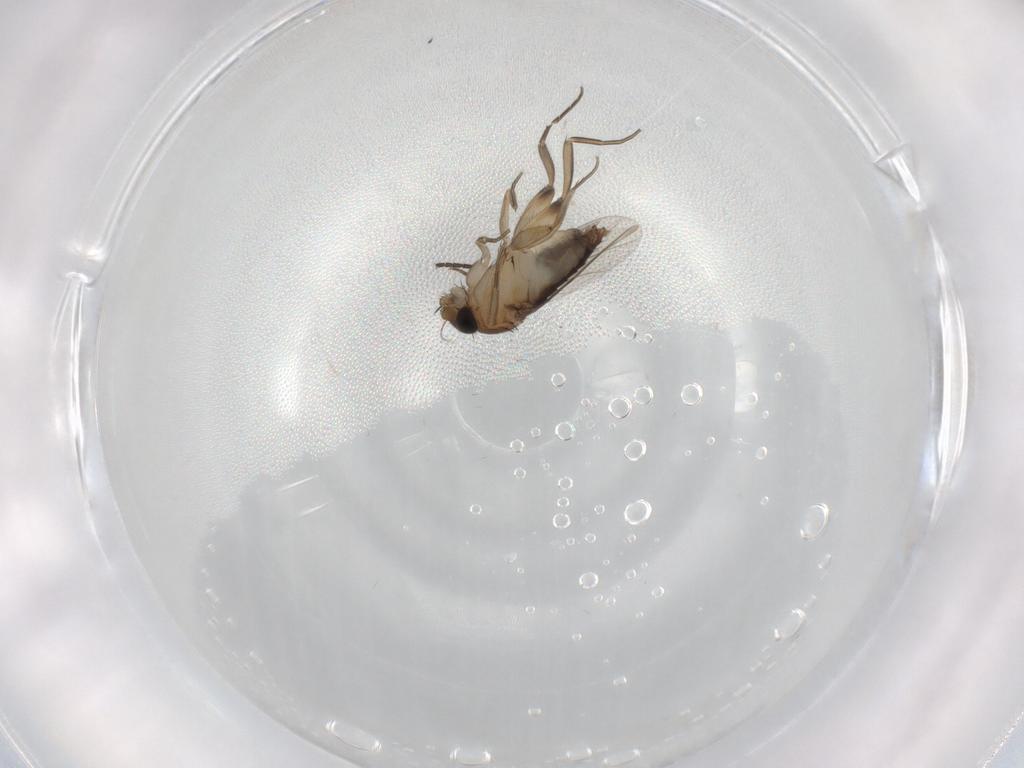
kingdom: Animalia
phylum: Arthropoda
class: Insecta
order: Diptera
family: Phoridae
